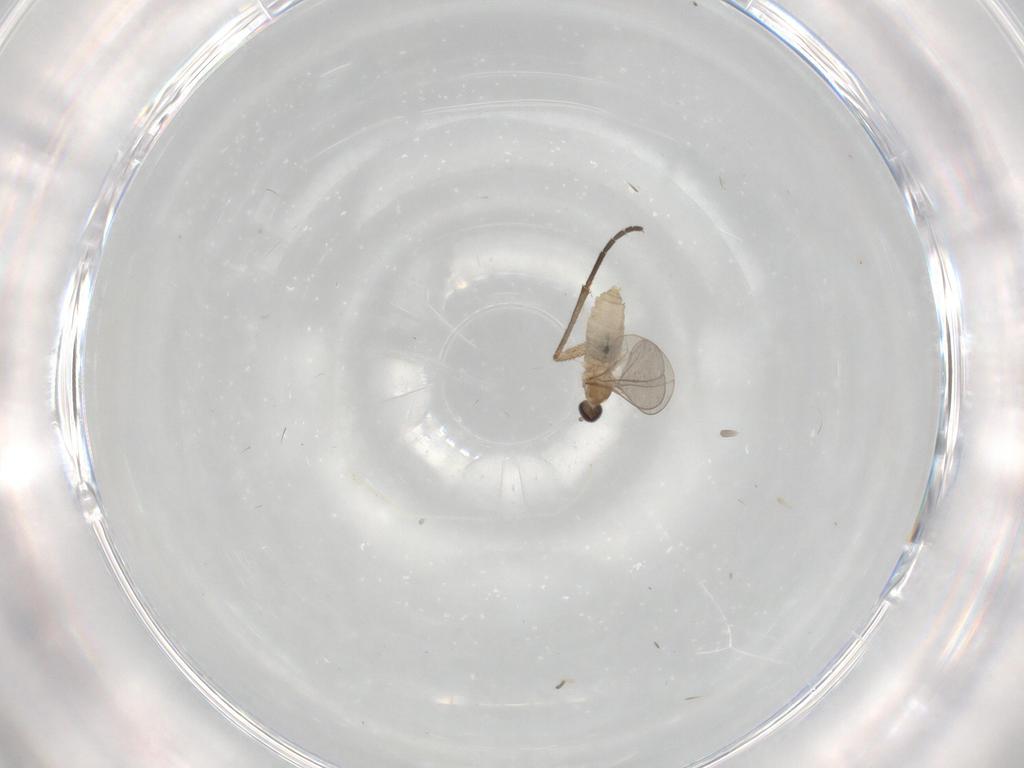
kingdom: Animalia
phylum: Arthropoda
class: Insecta
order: Diptera
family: Cecidomyiidae
